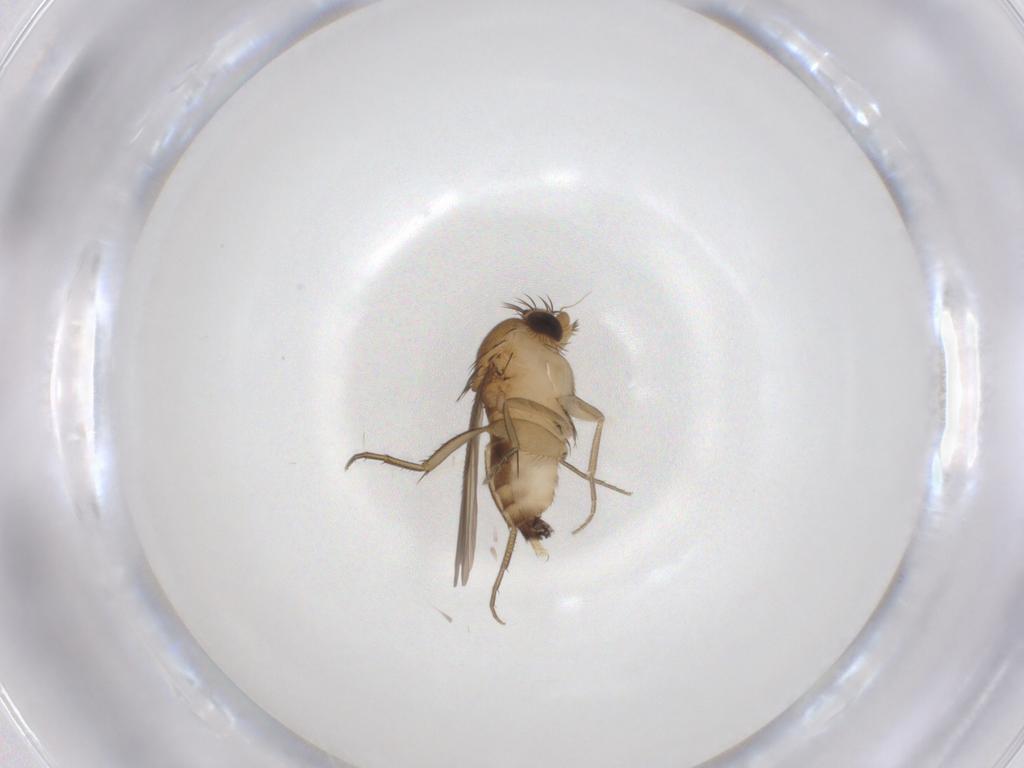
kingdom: Animalia
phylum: Arthropoda
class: Insecta
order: Diptera
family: Phoridae
